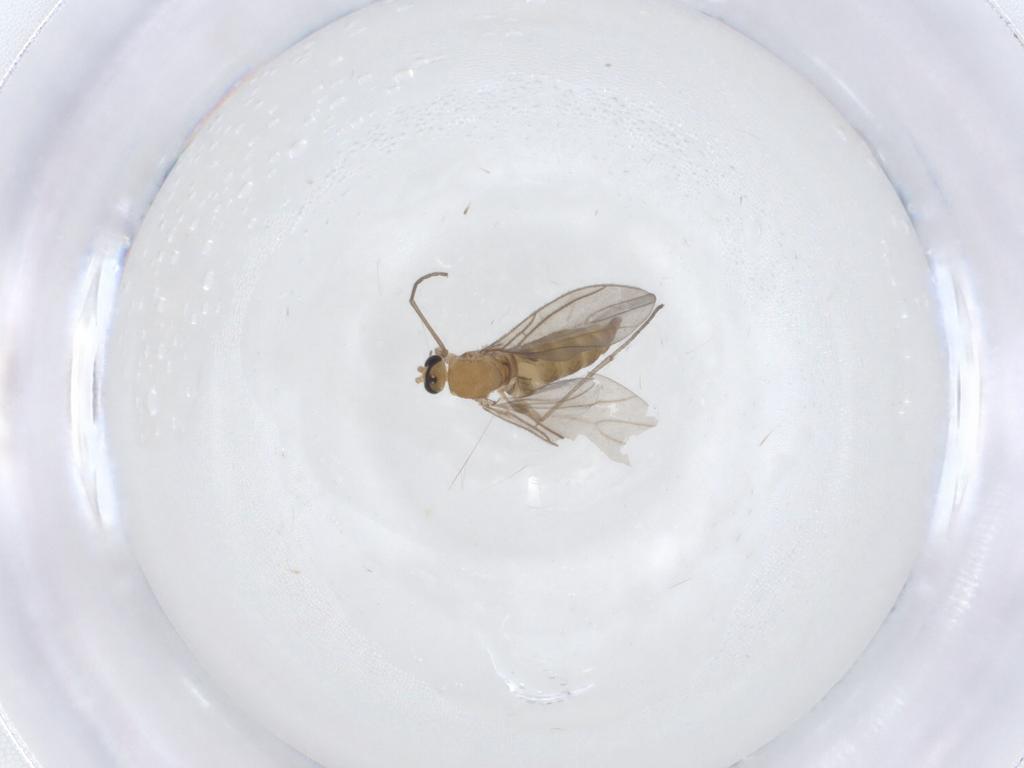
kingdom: Animalia
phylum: Arthropoda
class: Insecta
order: Diptera
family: Sciaridae
